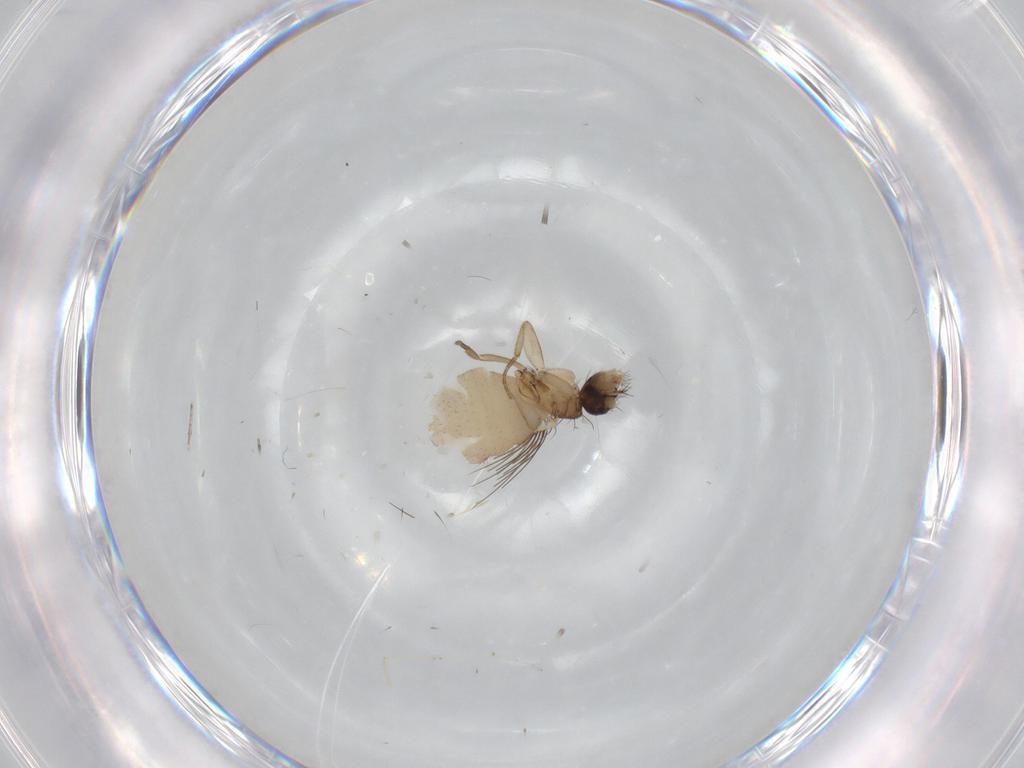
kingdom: Animalia
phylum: Arthropoda
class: Insecta
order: Diptera
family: Phoridae
